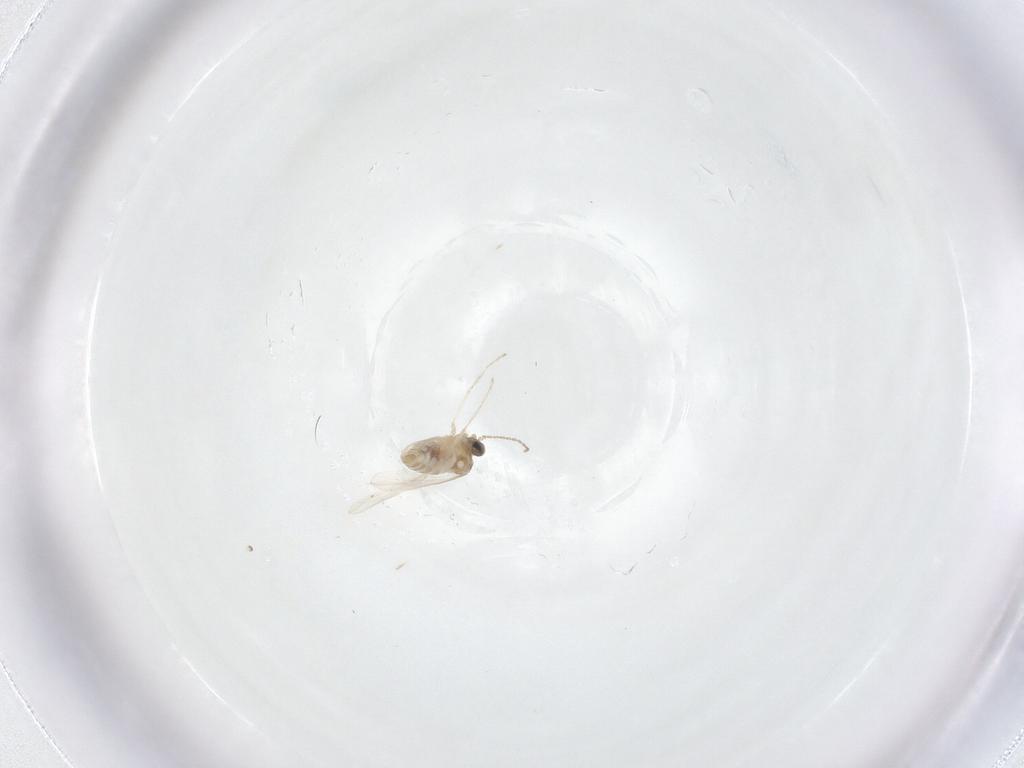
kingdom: Animalia
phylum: Arthropoda
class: Insecta
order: Diptera
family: Cecidomyiidae
